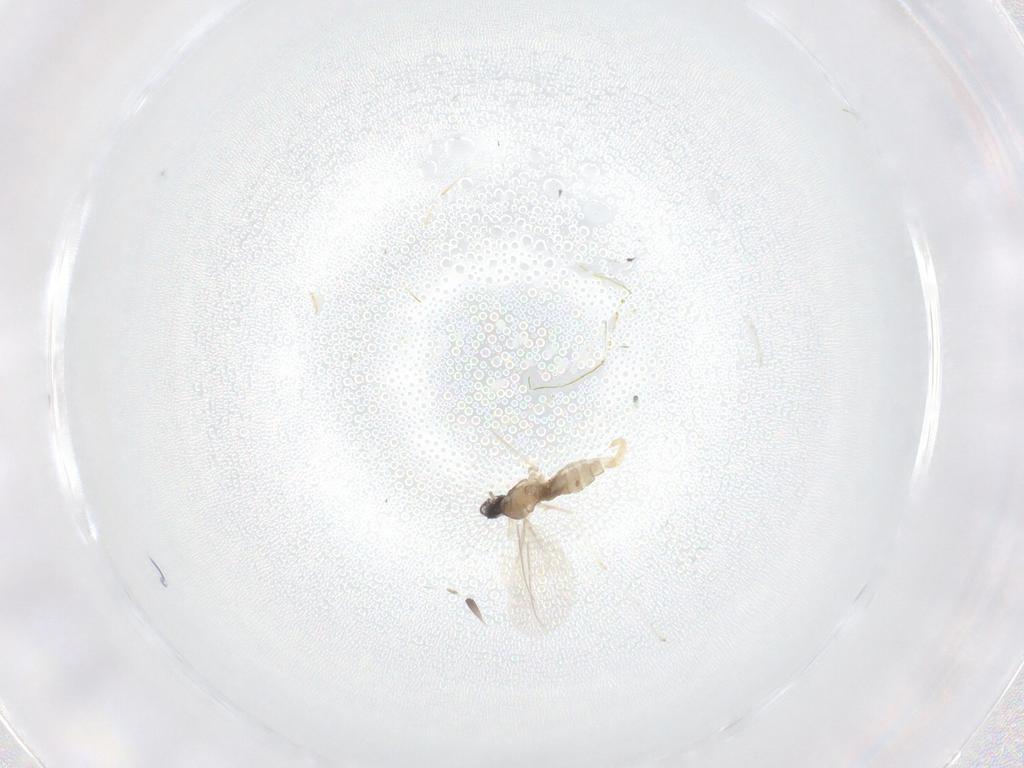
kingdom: Animalia
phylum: Arthropoda
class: Insecta
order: Diptera
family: Cecidomyiidae
